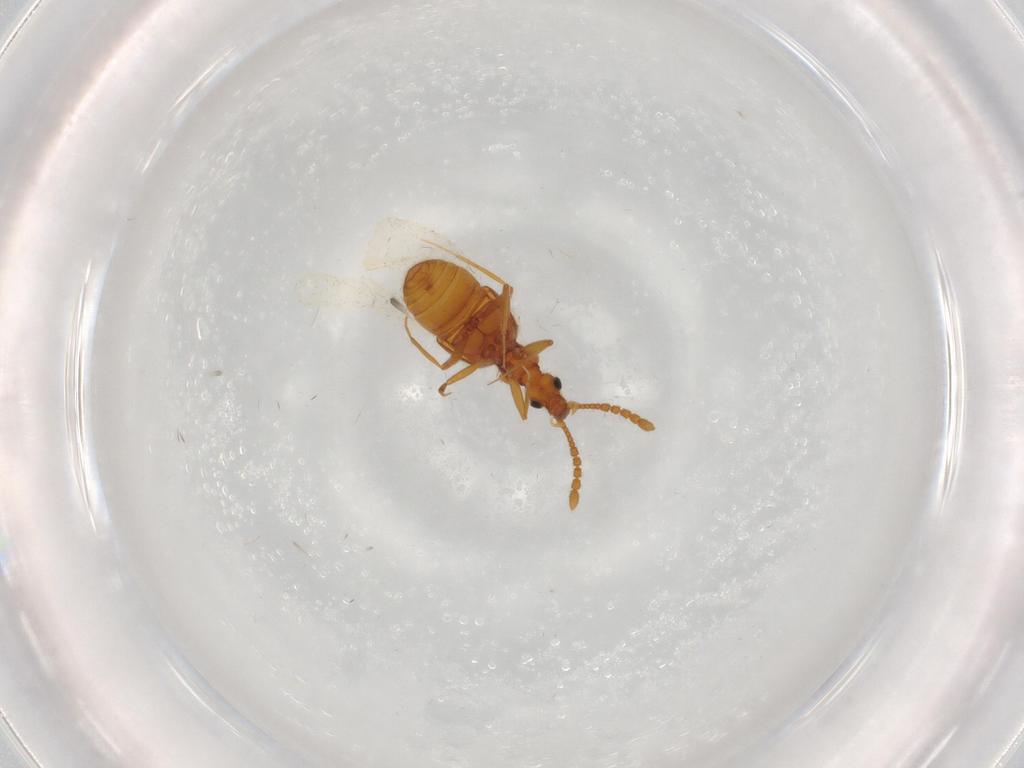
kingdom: Animalia
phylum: Arthropoda
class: Insecta
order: Coleoptera
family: Staphylinidae
